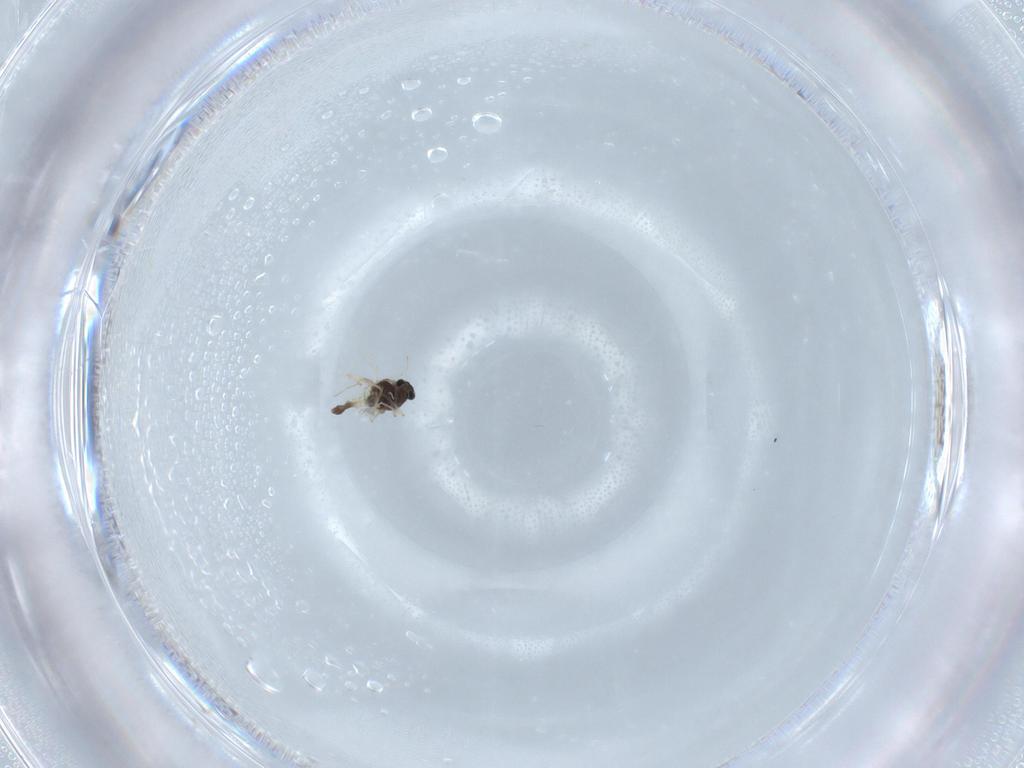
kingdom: Animalia
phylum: Arthropoda
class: Insecta
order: Diptera
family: Chironomidae
